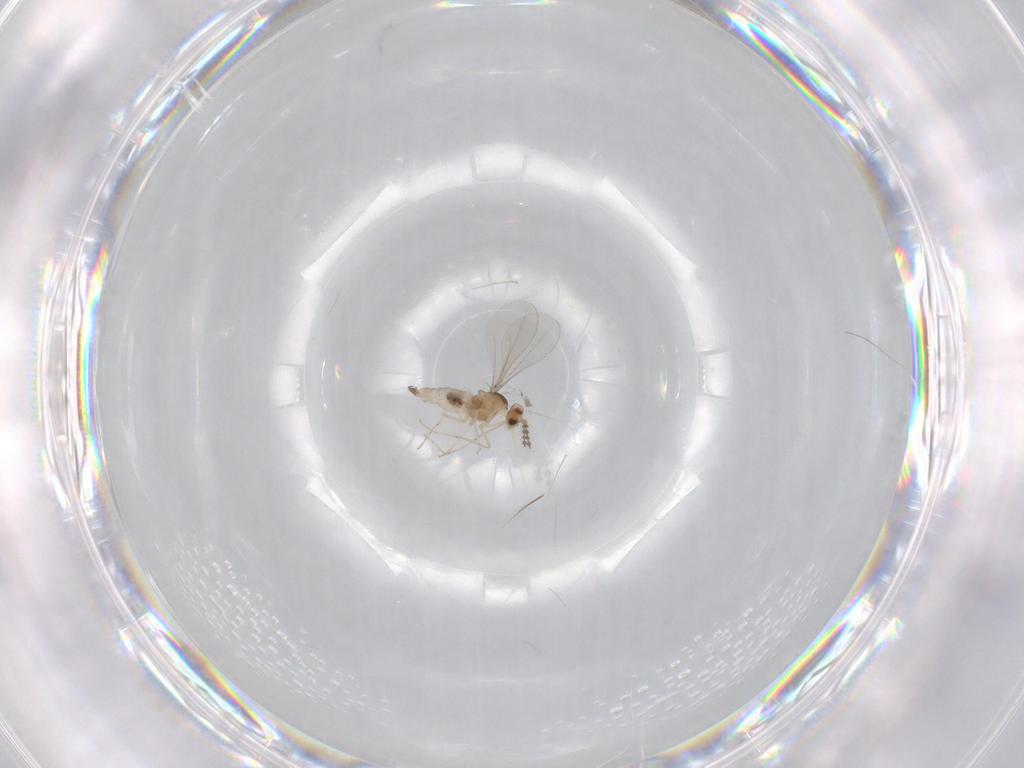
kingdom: Animalia
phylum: Arthropoda
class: Insecta
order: Diptera
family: Cecidomyiidae
